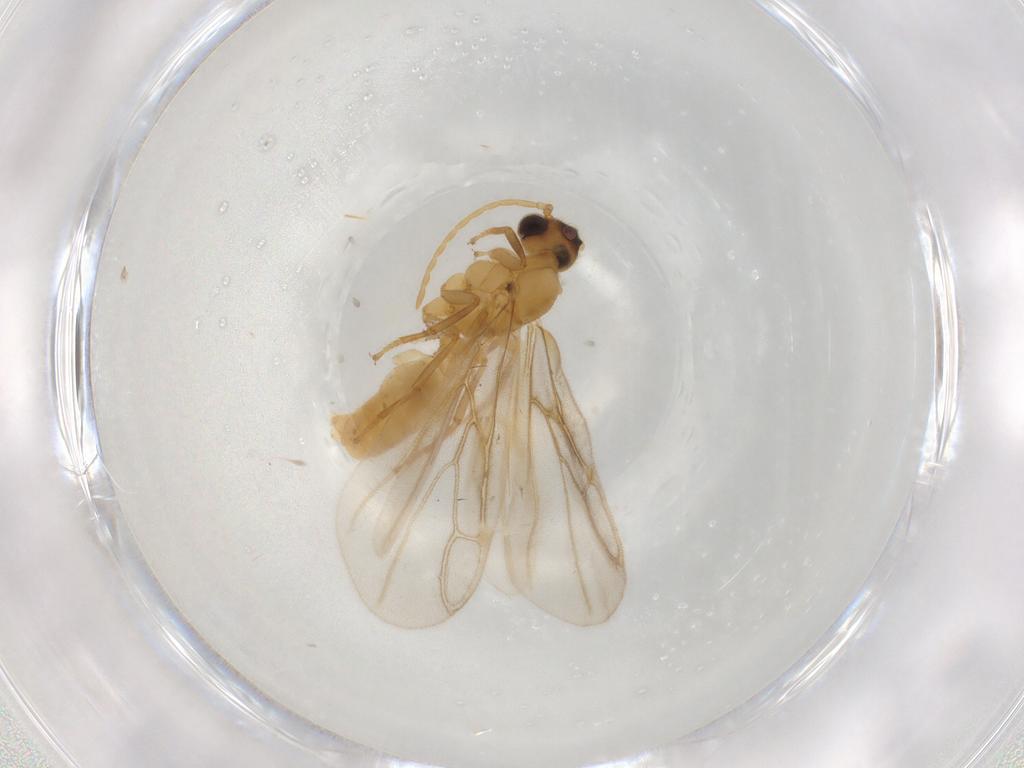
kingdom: Animalia
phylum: Arthropoda
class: Insecta
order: Hymenoptera
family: Formicidae
